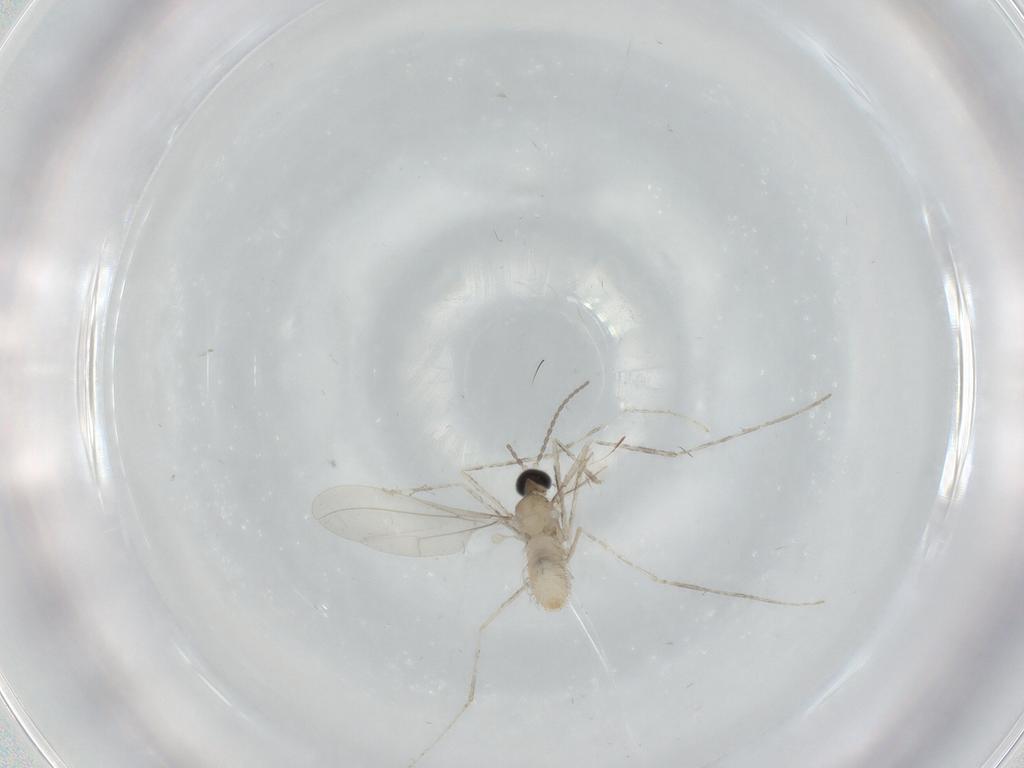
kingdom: Animalia
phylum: Arthropoda
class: Insecta
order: Diptera
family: Cecidomyiidae
